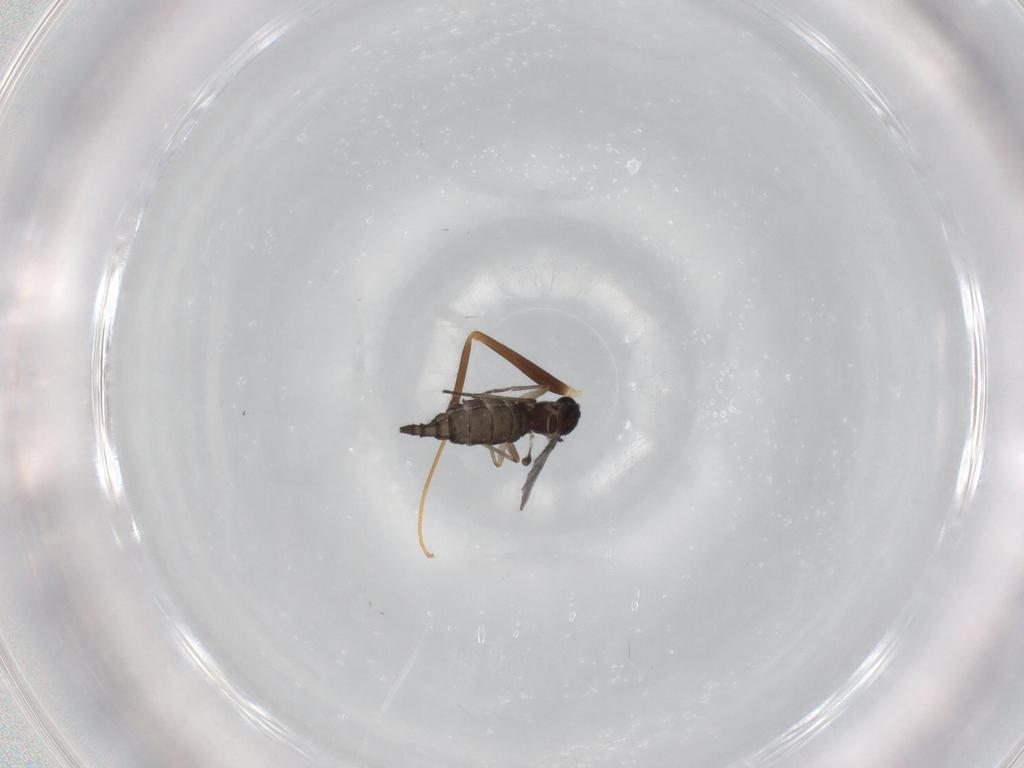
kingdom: Animalia
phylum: Arthropoda
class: Insecta
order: Diptera
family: Sciaridae
